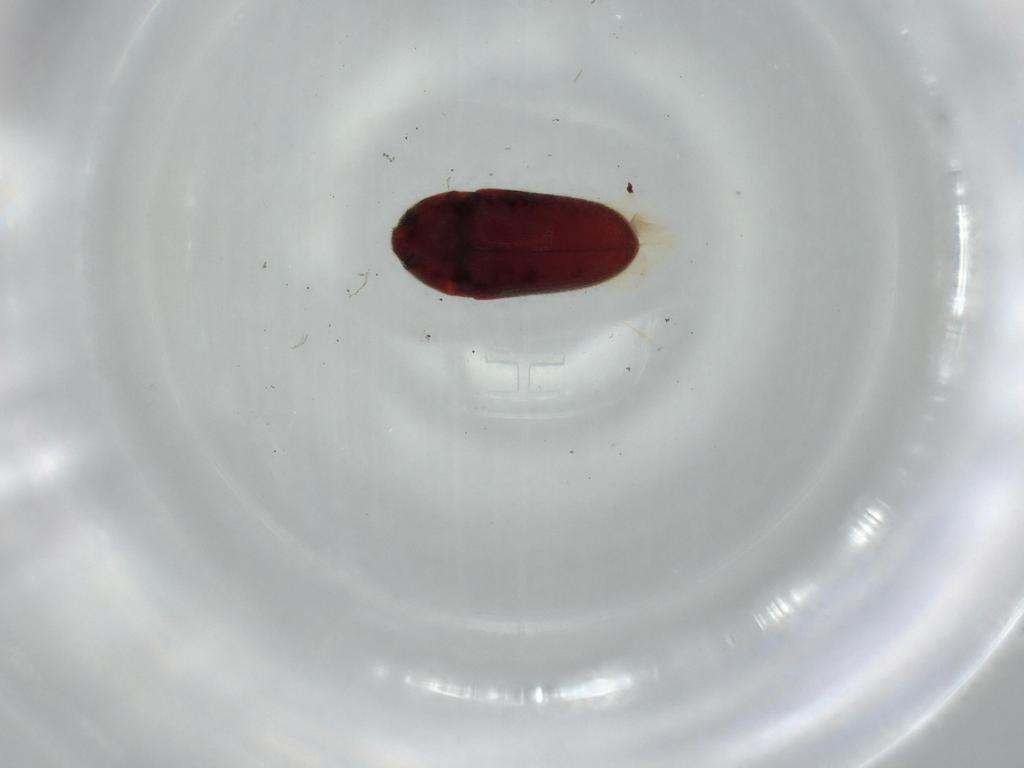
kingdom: Animalia
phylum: Arthropoda
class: Insecta
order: Coleoptera
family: Throscidae
